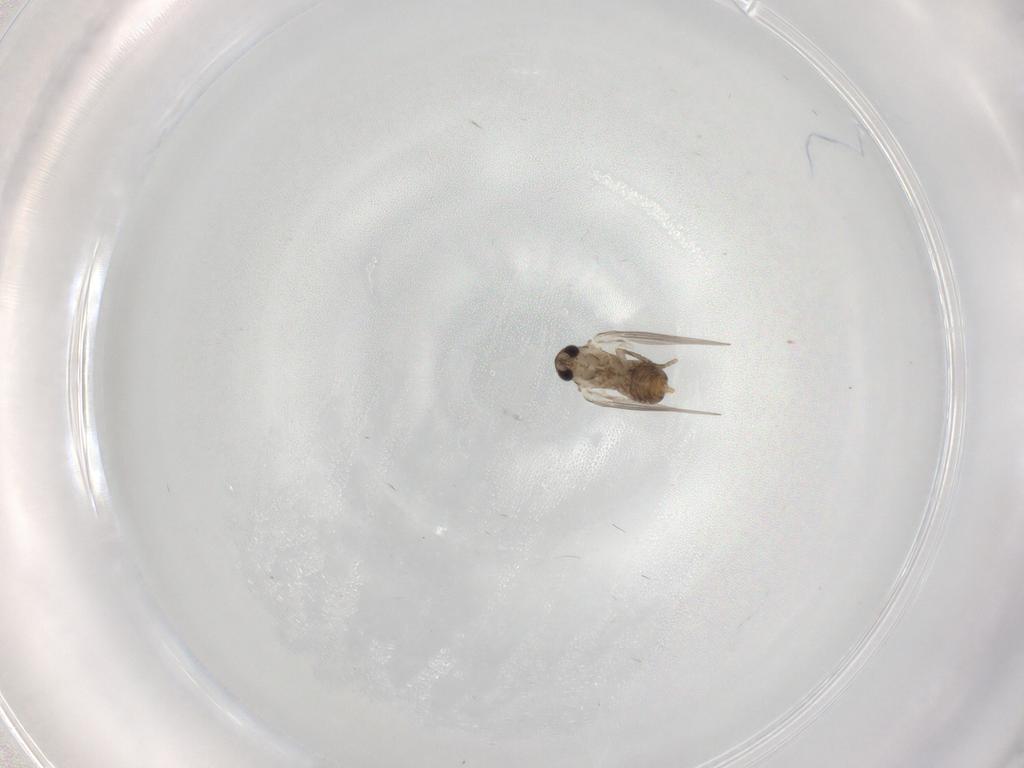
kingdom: Animalia
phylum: Arthropoda
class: Insecta
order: Diptera
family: Psychodidae
